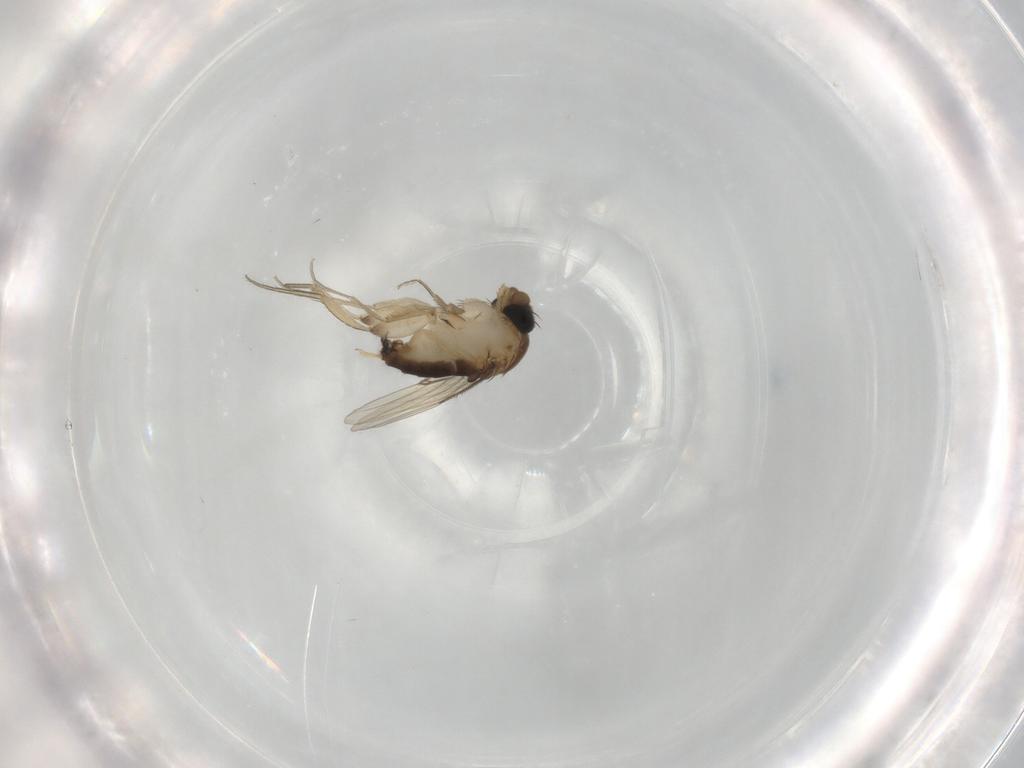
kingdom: Animalia
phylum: Arthropoda
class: Insecta
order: Diptera
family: Phoridae
